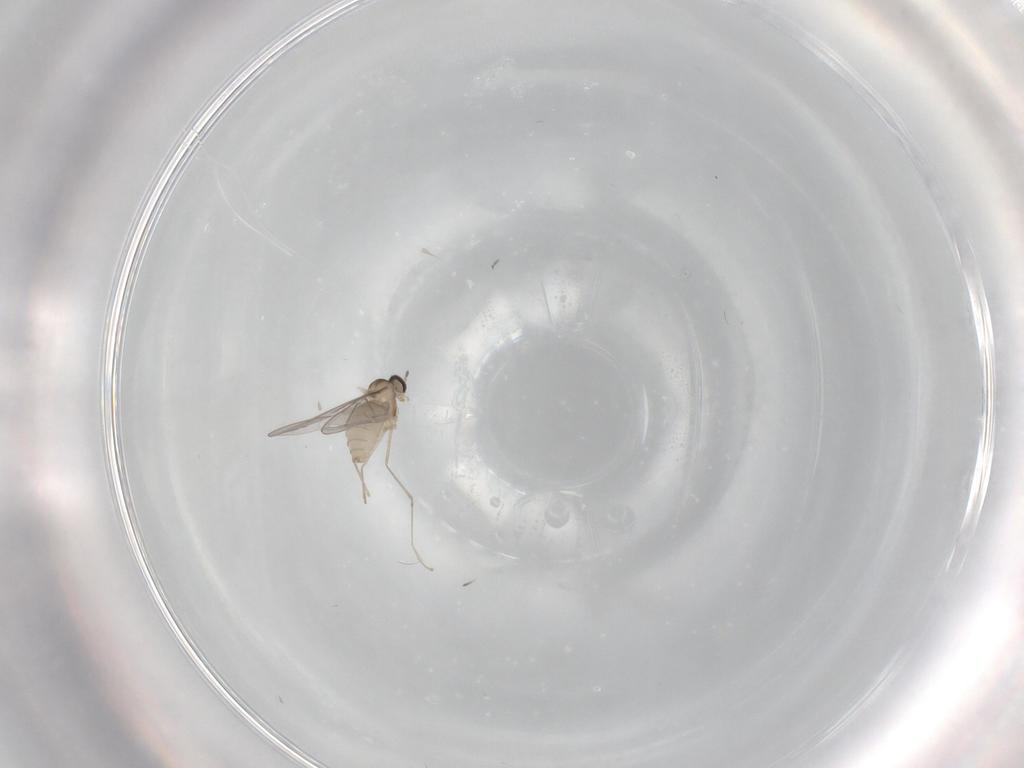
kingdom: Animalia
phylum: Arthropoda
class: Insecta
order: Diptera
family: Cecidomyiidae
